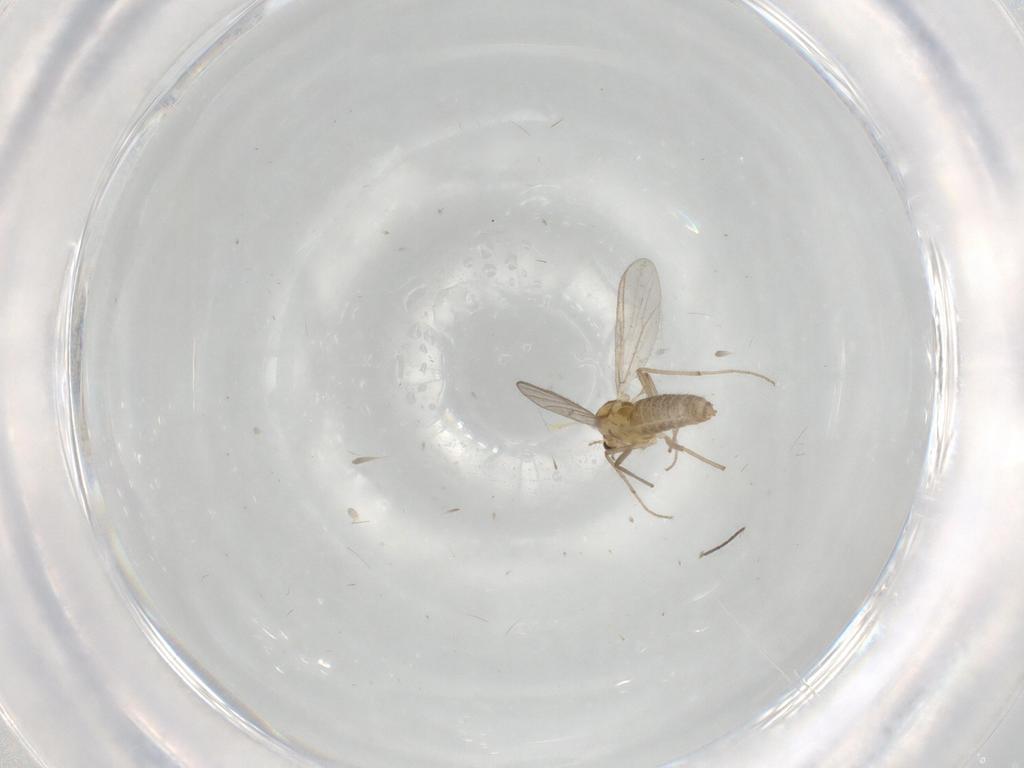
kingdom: Animalia
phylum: Arthropoda
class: Insecta
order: Diptera
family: Chironomidae
